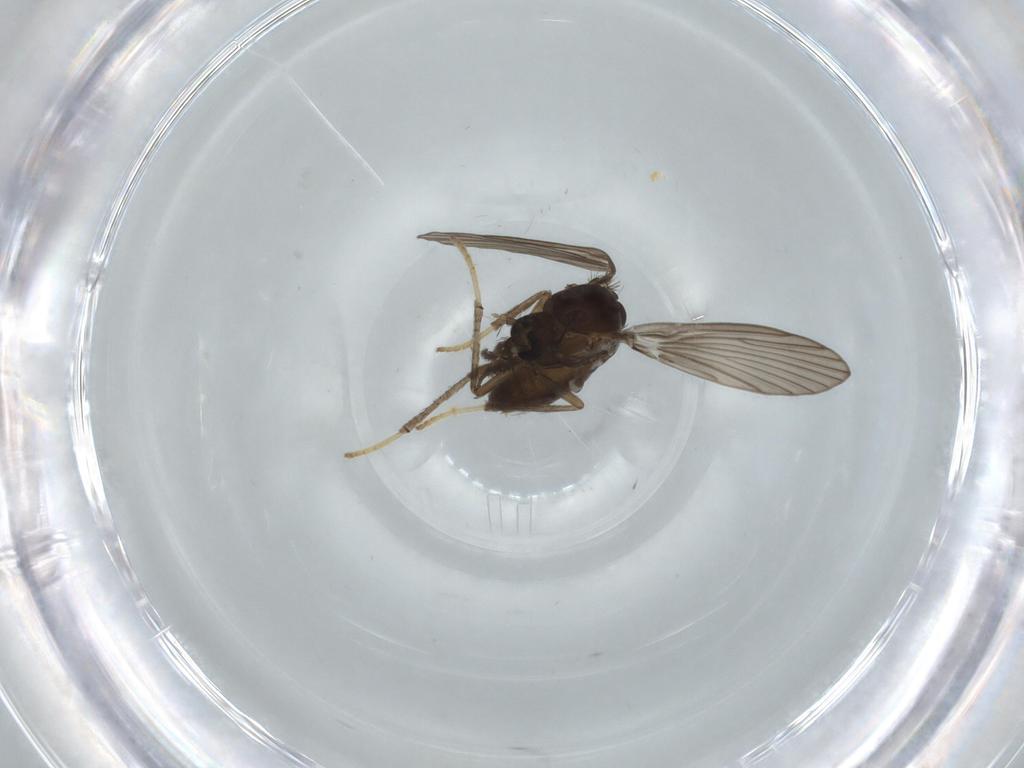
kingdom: Animalia
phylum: Arthropoda
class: Insecta
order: Diptera
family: Psychodidae
